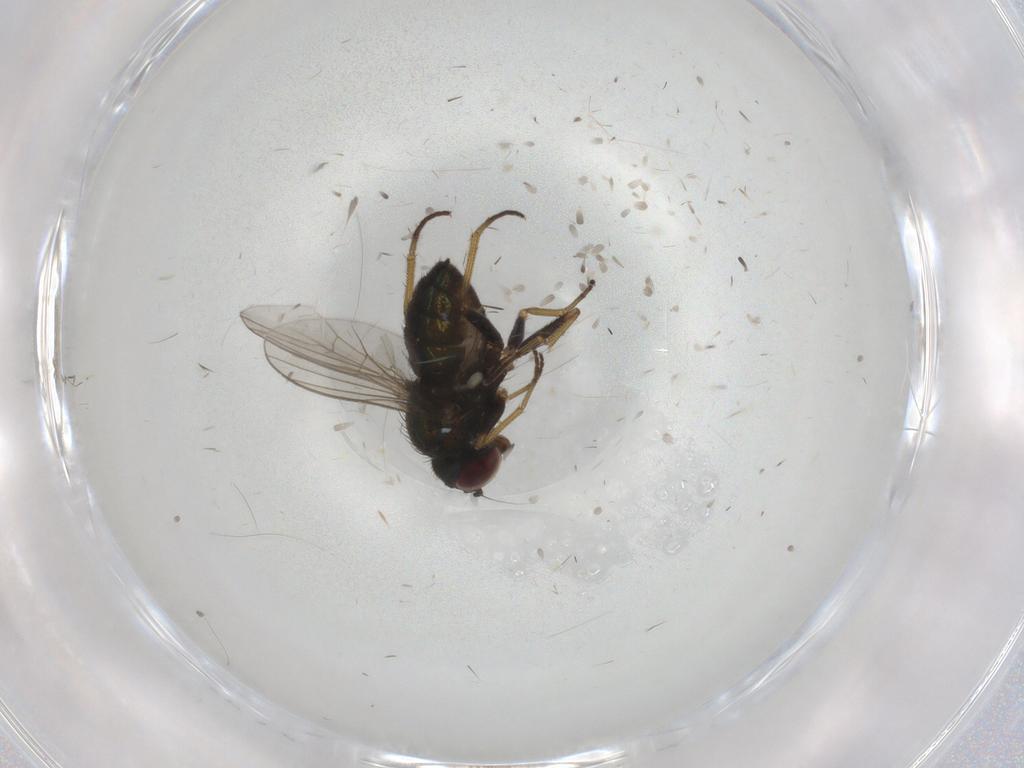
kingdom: Animalia
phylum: Arthropoda
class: Insecta
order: Diptera
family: Dolichopodidae
